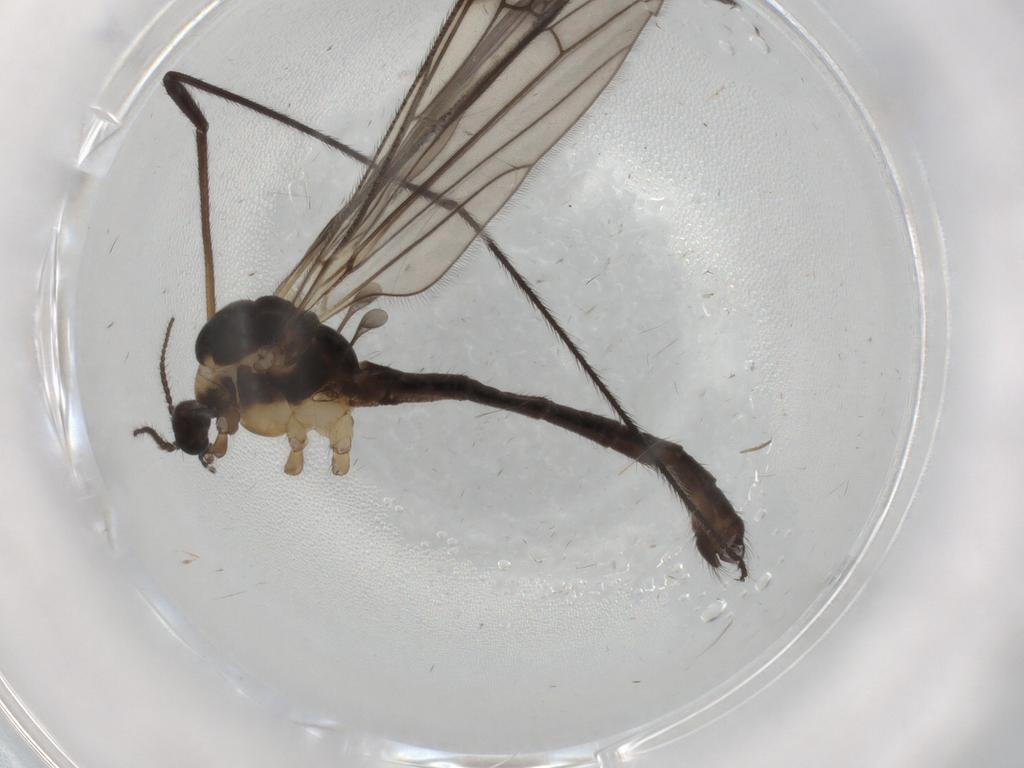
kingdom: Animalia
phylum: Arthropoda
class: Insecta
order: Diptera
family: Limoniidae
